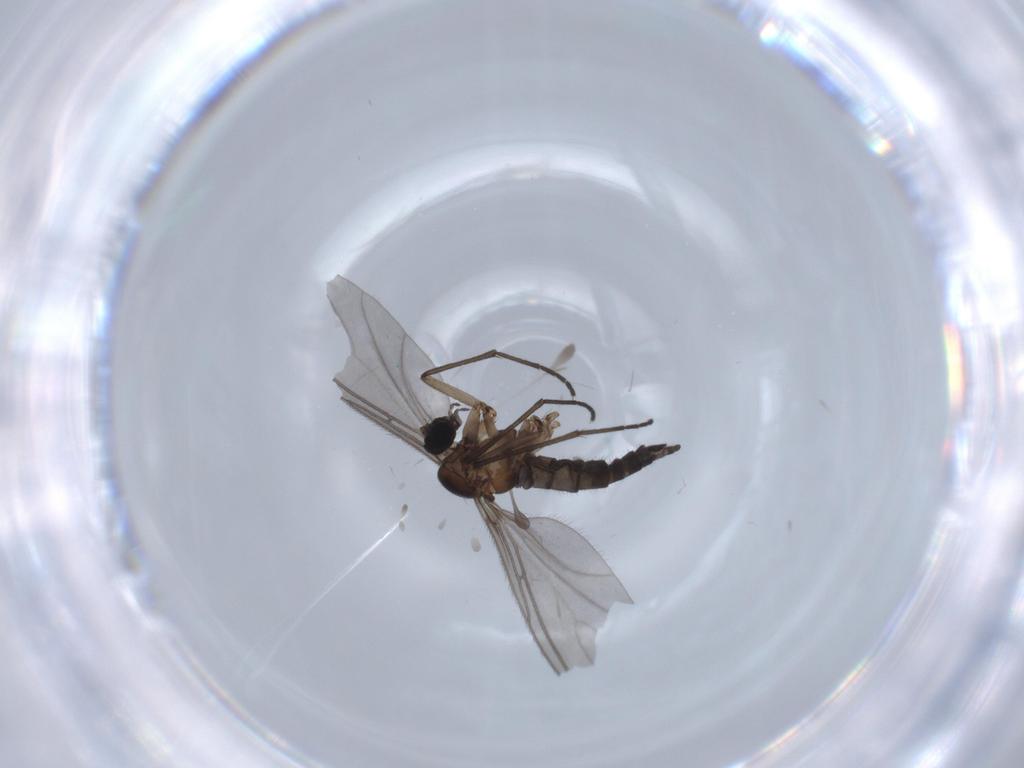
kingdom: Animalia
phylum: Arthropoda
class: Insecta
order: Diptera
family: Sciaridae
